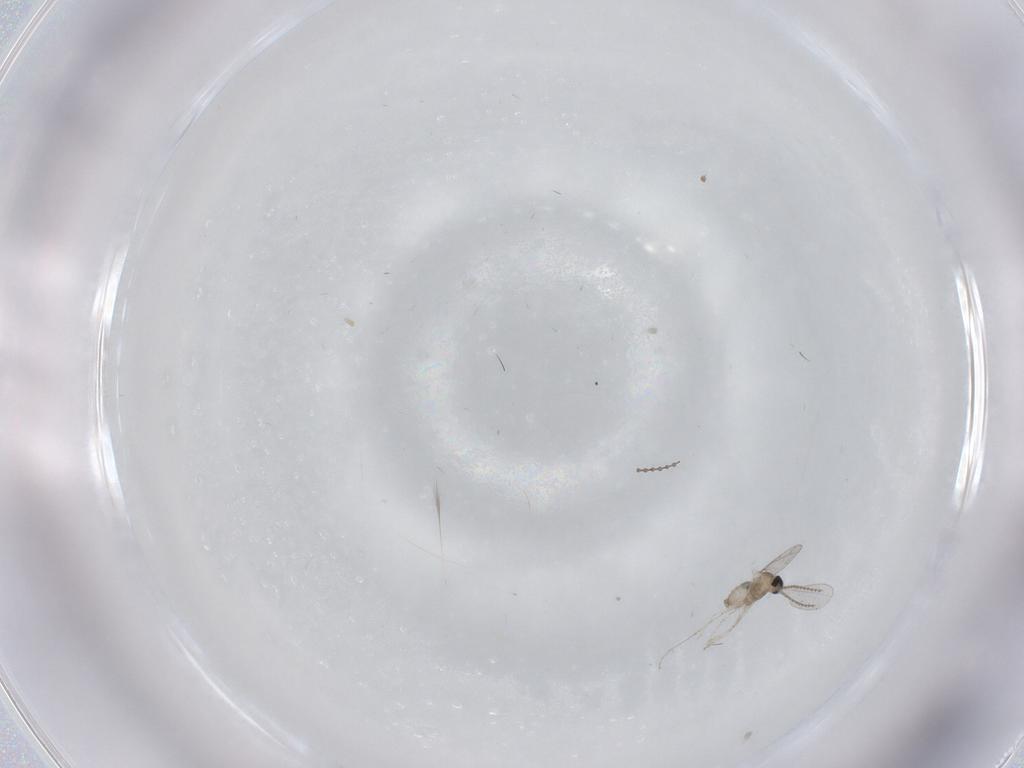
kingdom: Animalia
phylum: Arthropoda
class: Insecta
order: Diptera
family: Cecidomyiidae
